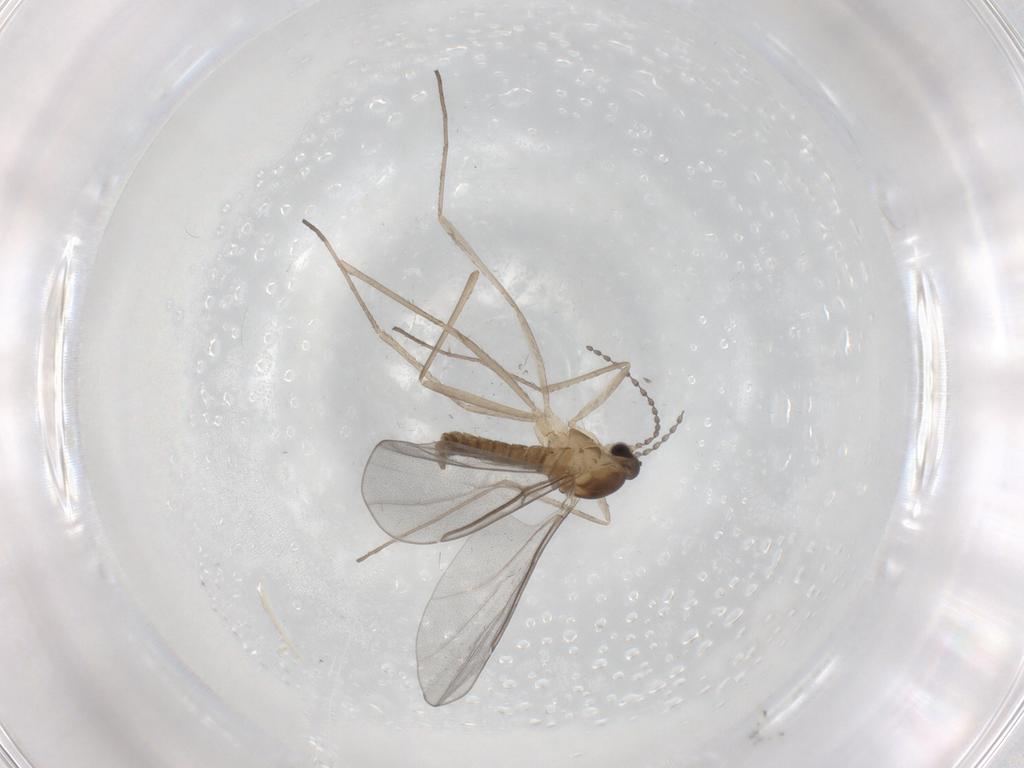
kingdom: Animalia
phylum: Arthropoda
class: Insecta
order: Diptera
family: Cecidomyiidae
